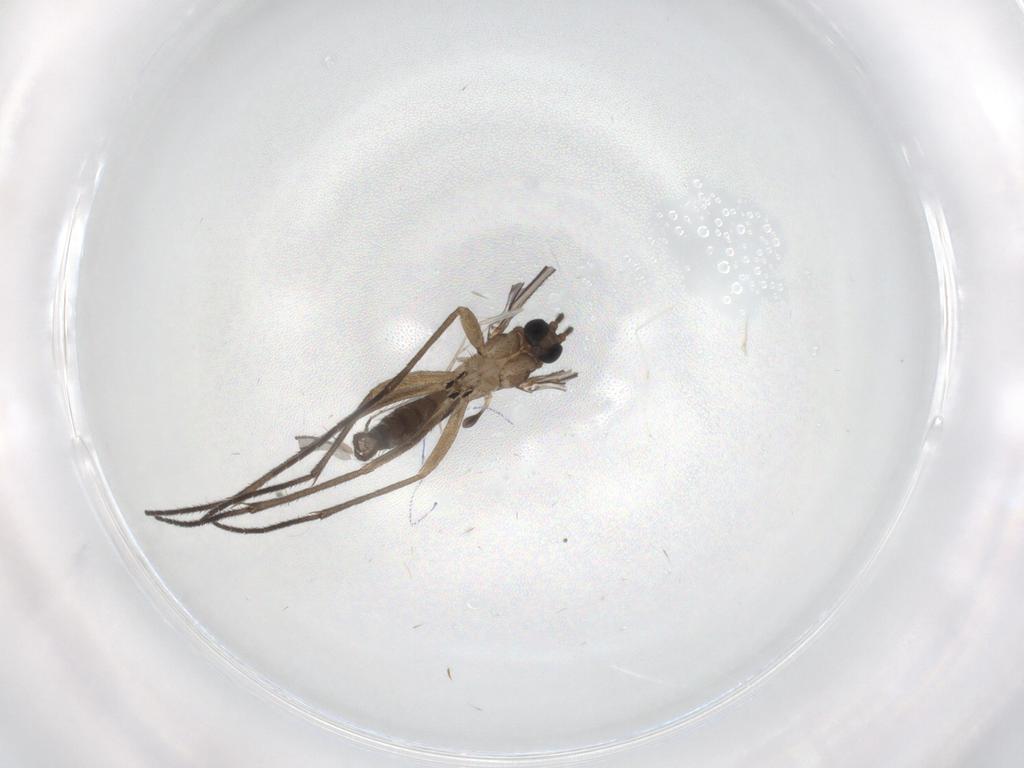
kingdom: Animalia
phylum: Arthropoda
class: Insecta
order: Diptera
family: Sciaridae
